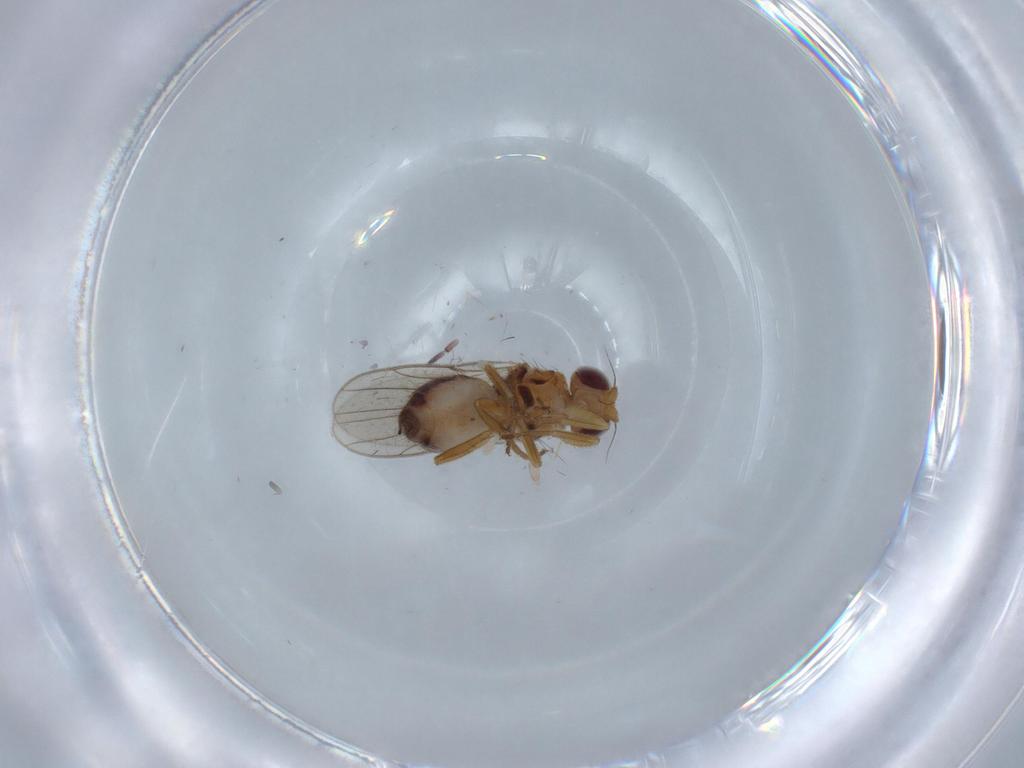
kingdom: Animalia
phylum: Arthropoda
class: Insecta
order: Diptera
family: Chloropidae
